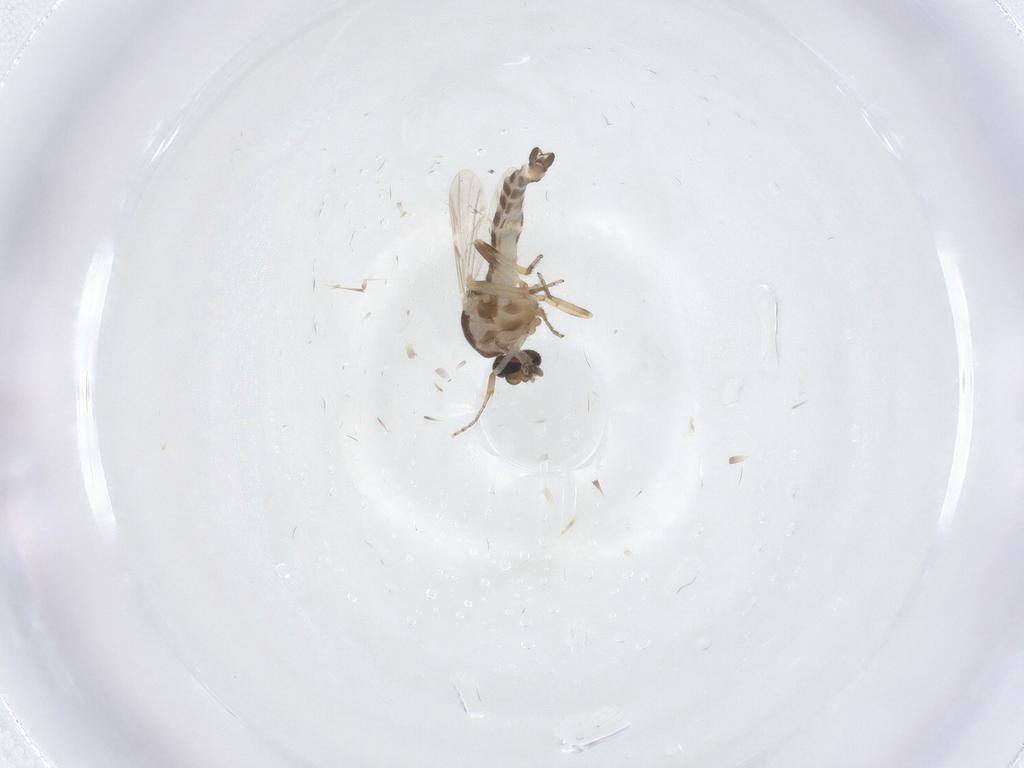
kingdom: Animalia
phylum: Arthropoda
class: Insecta
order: Diptera
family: Ceratopogonidae
